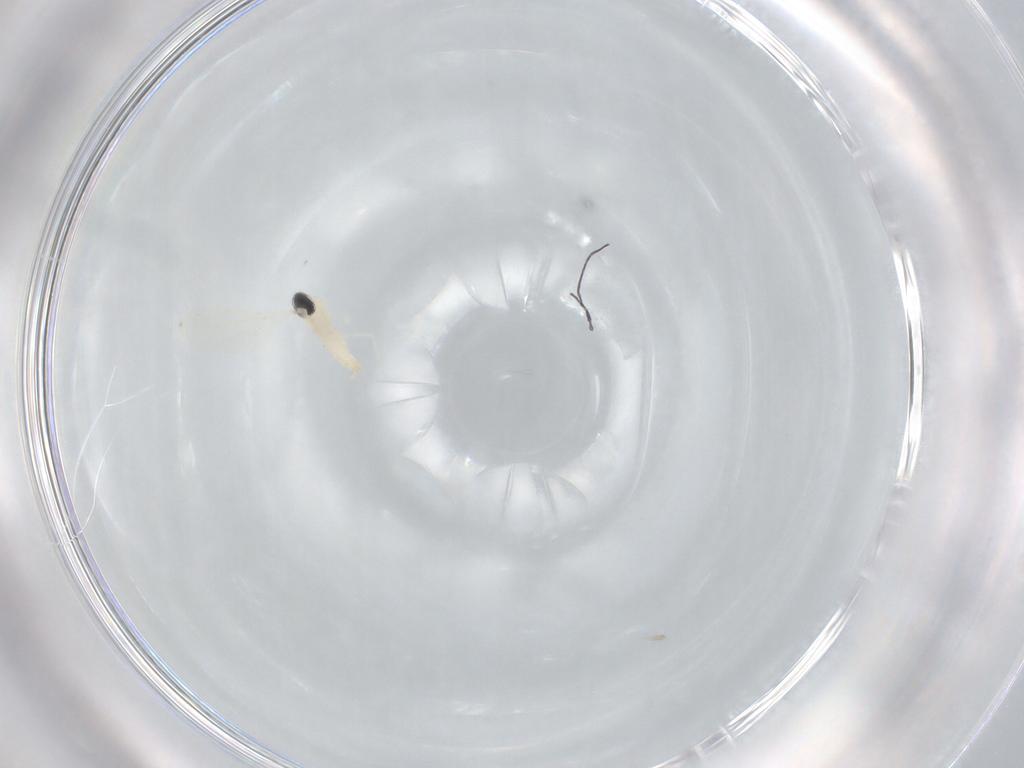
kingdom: Animalia
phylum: Arthropoda
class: Insecta
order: Diptera
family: Cecidomyiidae
